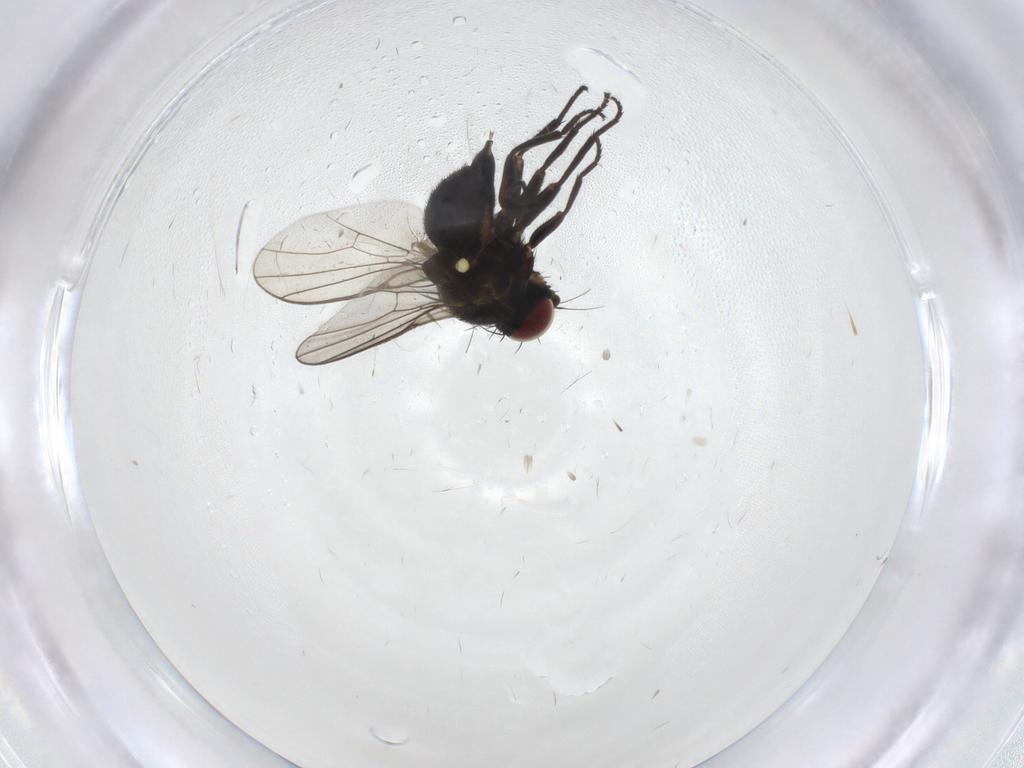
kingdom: Animalia
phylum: Arthropoda
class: Insecta
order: Diptera
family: Agromyzidae
